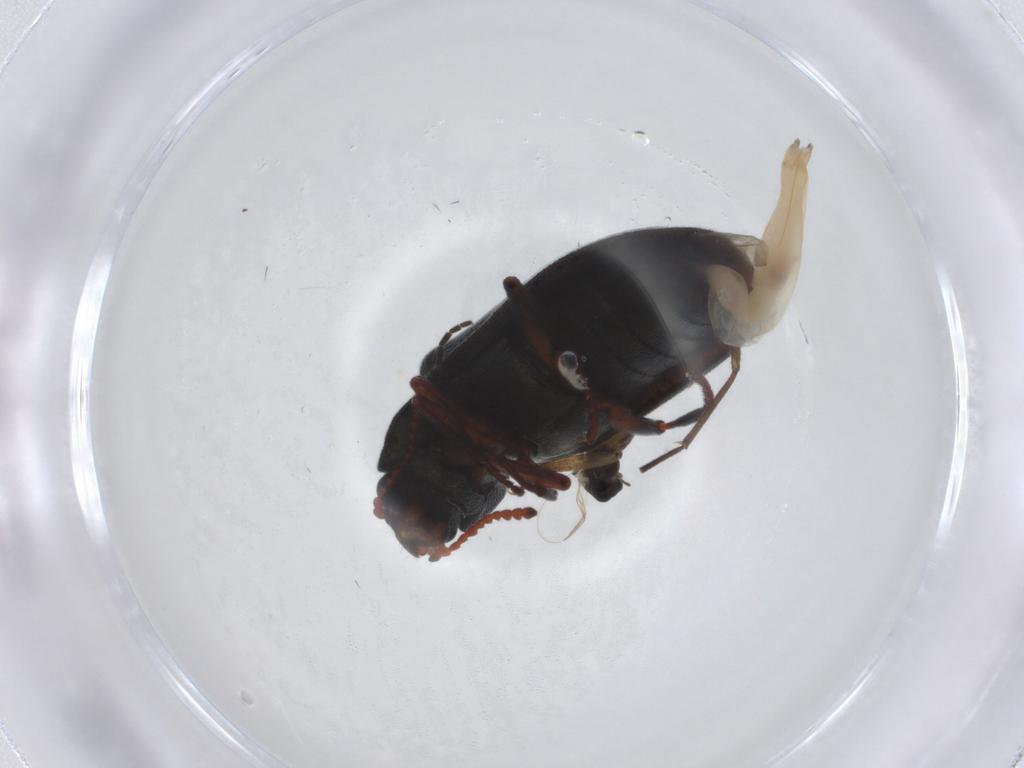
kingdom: Animalia
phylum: Arthropoda
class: Insecta
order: Coleoptera
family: Melyridae
